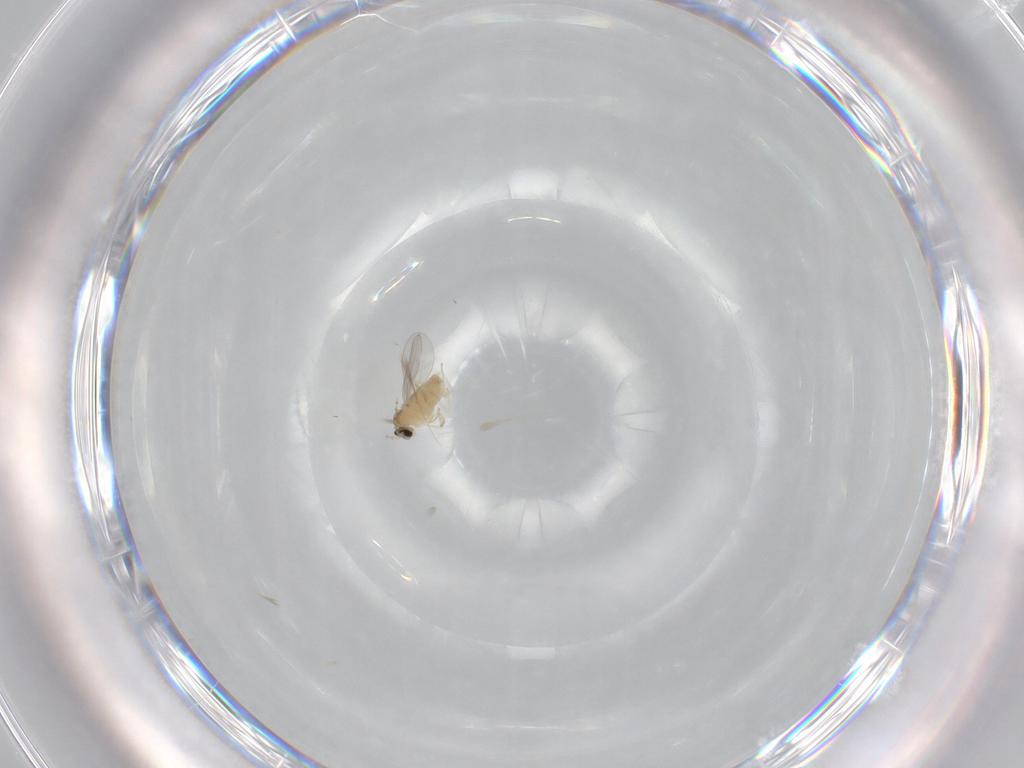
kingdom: Animalia
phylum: Arthropoda
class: Insecta
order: Diptera
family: Cecidomyiidae
